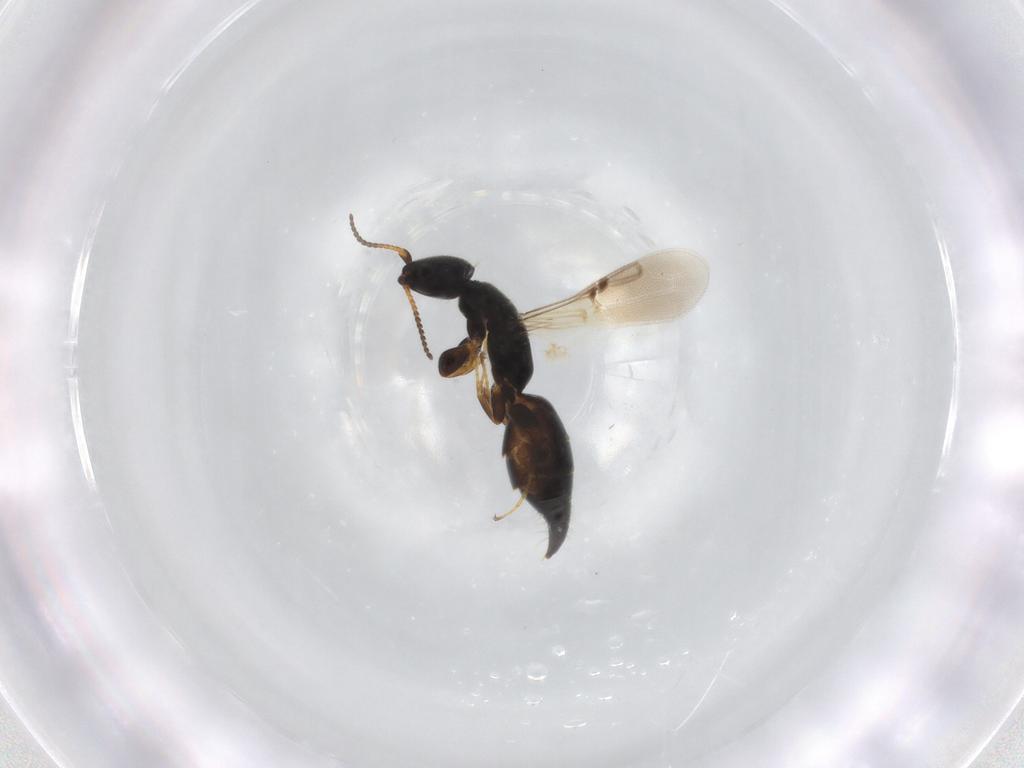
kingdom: Animalia
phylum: Arthropoda
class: Insecta
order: Hymenoptera
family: Bethylidae
